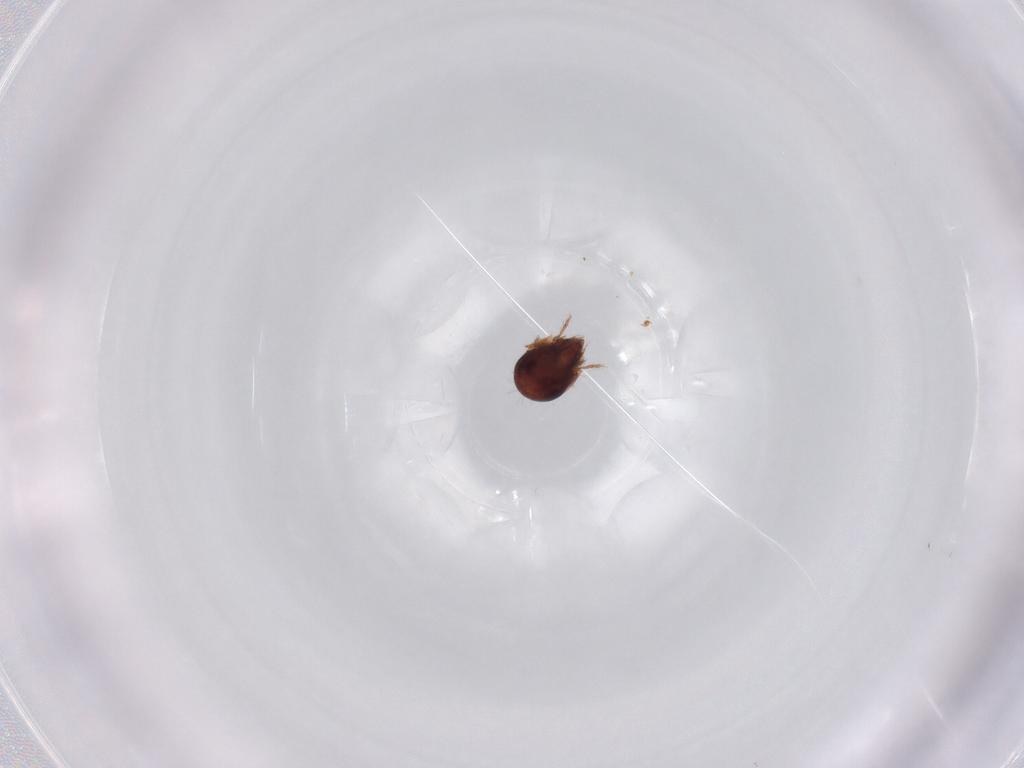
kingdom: Animalia
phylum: Arthropoda
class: Arachnida
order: Sarcoptiformes
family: Humerobatidae
